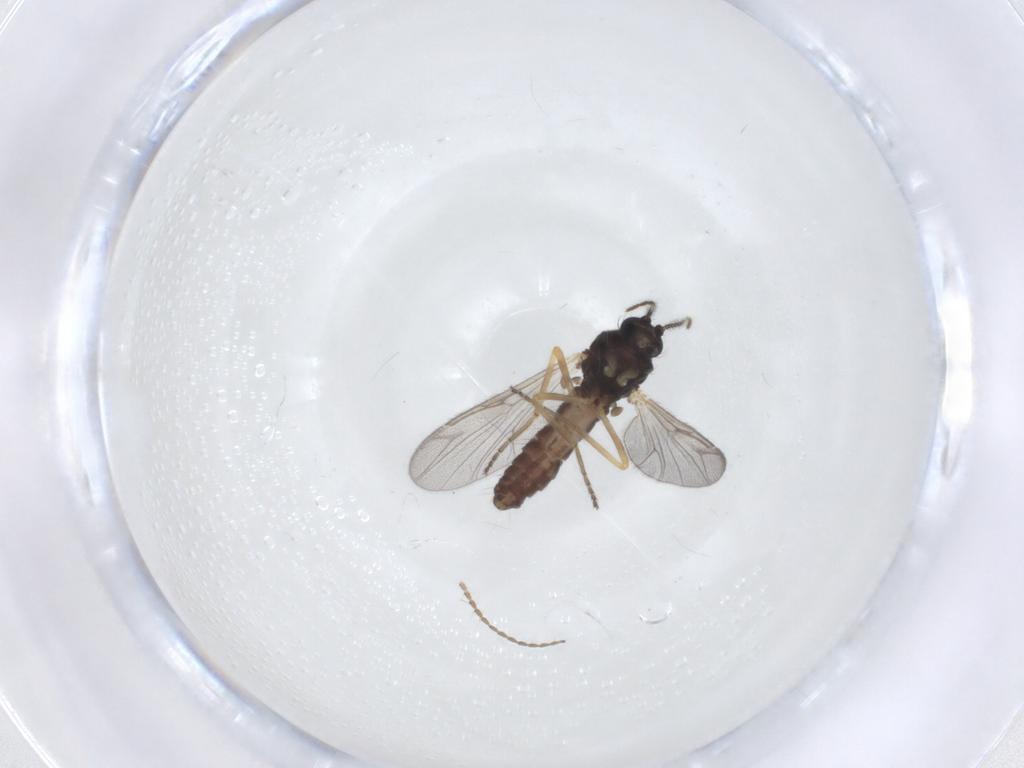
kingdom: Animalia
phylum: Arthropoda
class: Insecta
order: Diptera
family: Ceratopogonidae
